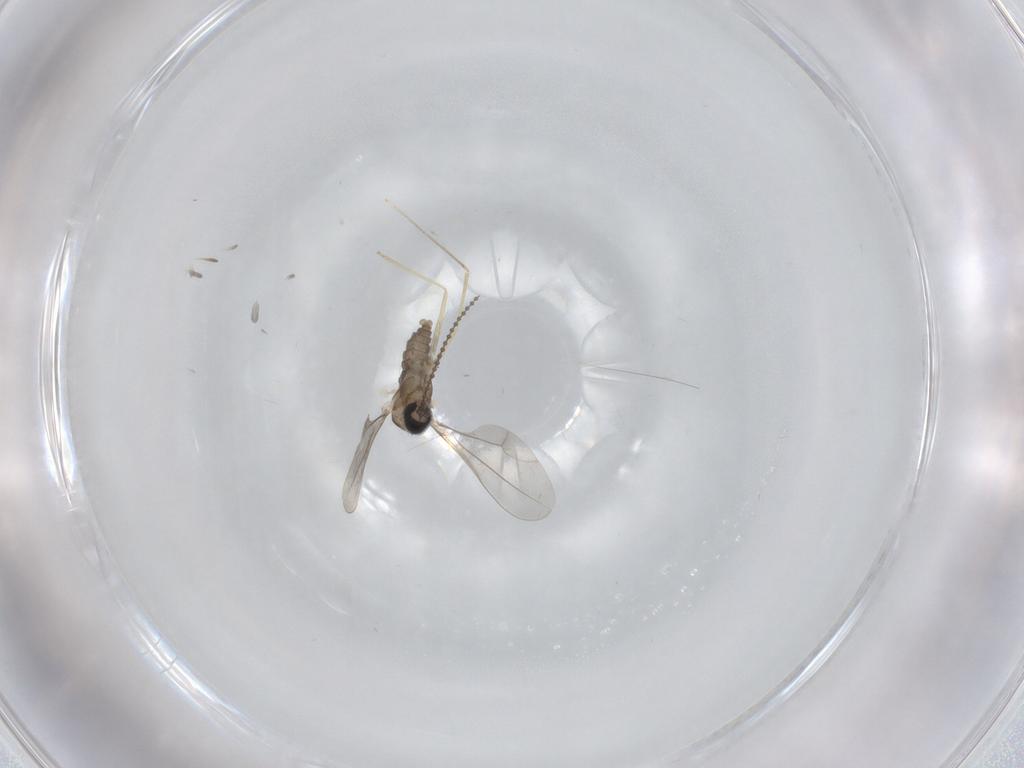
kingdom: Animalia
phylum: Arthropoda
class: Insecta
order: Diptera
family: Cecidomyiidae
